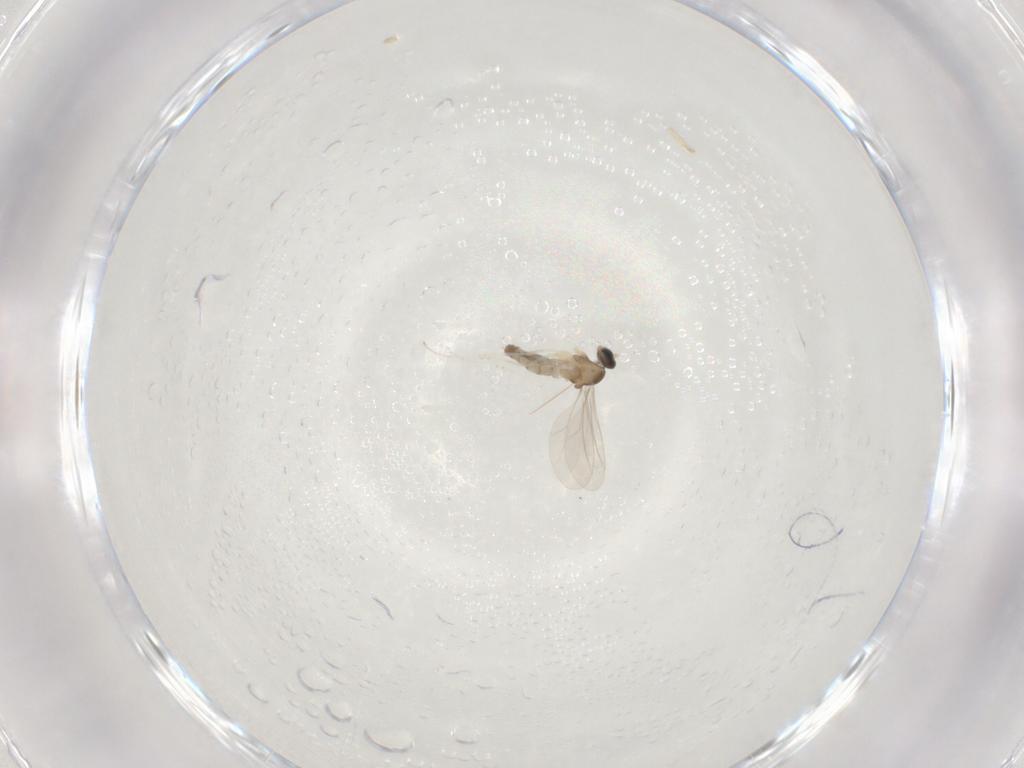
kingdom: Animalia
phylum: Arthropoda
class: Insecta
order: Diptera
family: Cecidomyiidae
